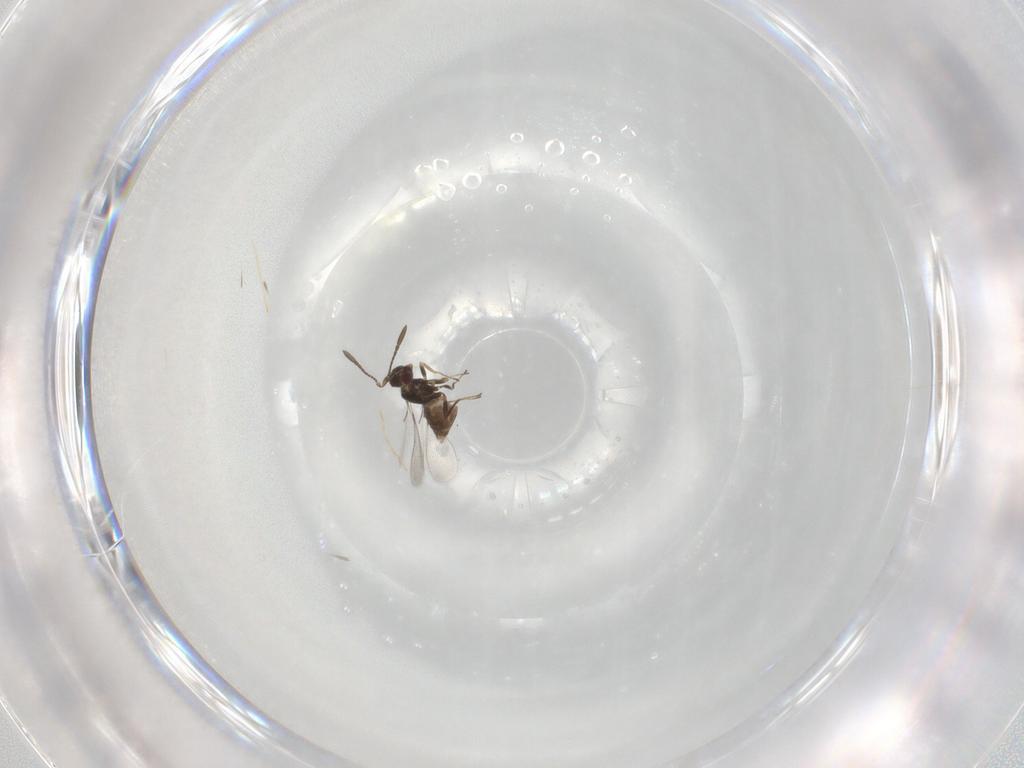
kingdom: Animalia
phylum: Arthropoda
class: Insecta
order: Hymenoptera
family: Mymaridae
